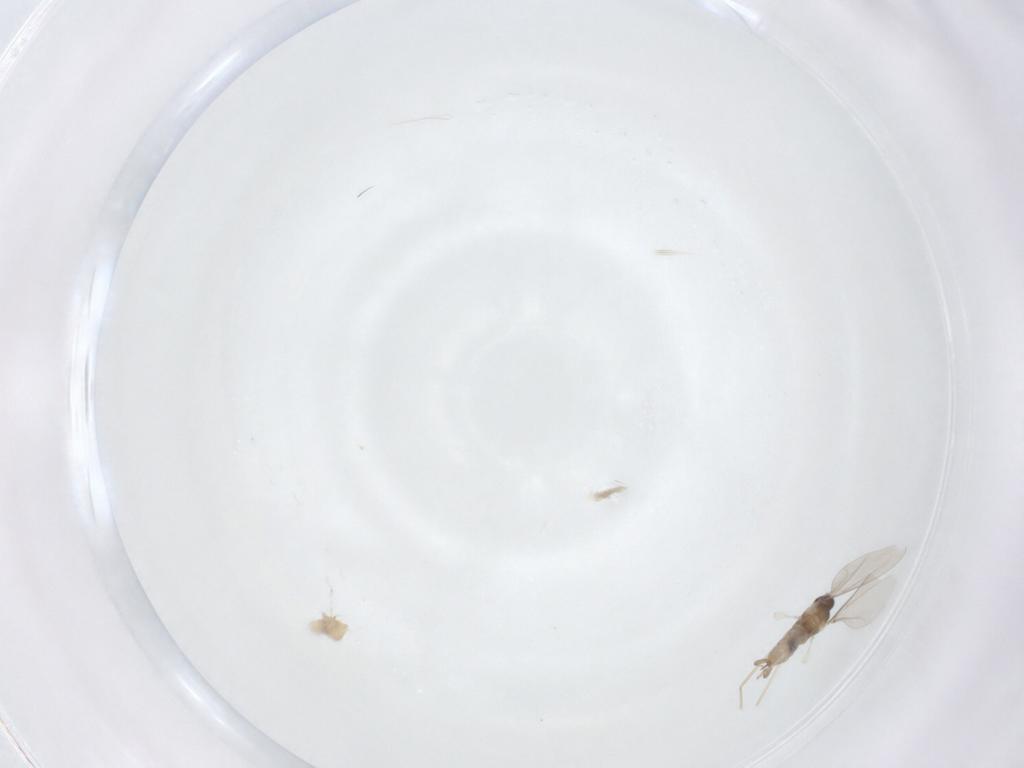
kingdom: Animalia
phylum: Arthropoda
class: Insecta
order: Diptera
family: Cecidomyiidae
